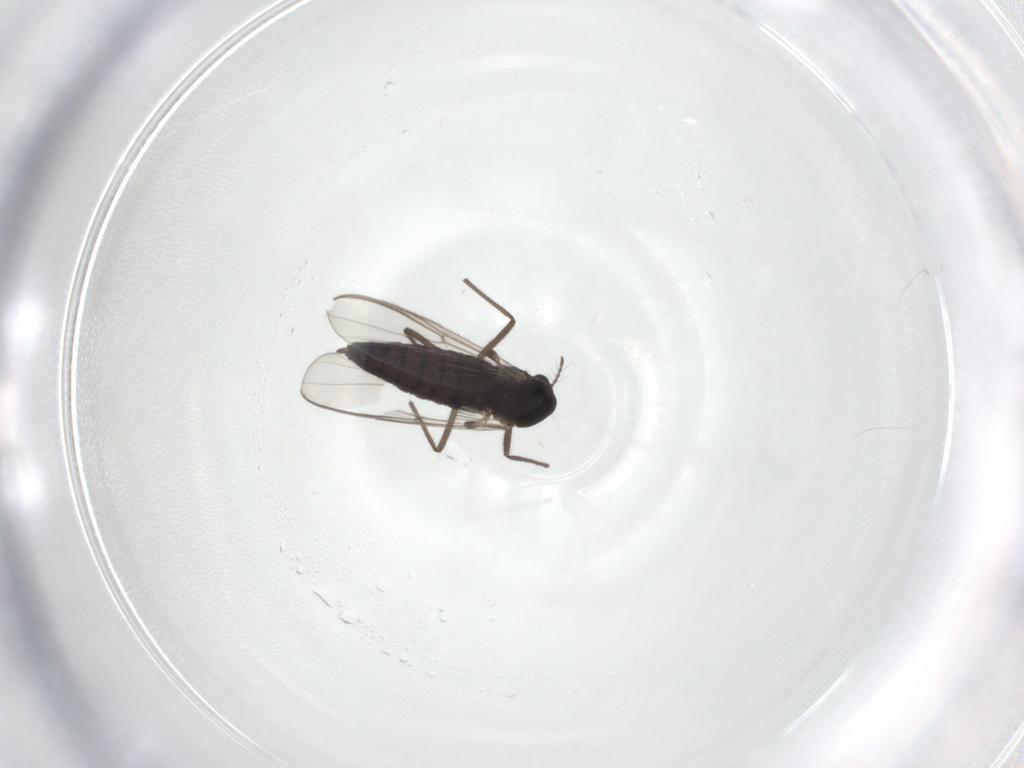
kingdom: Animalia
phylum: Arthropoda
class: Insecta
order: Diptera
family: Chironomidae
